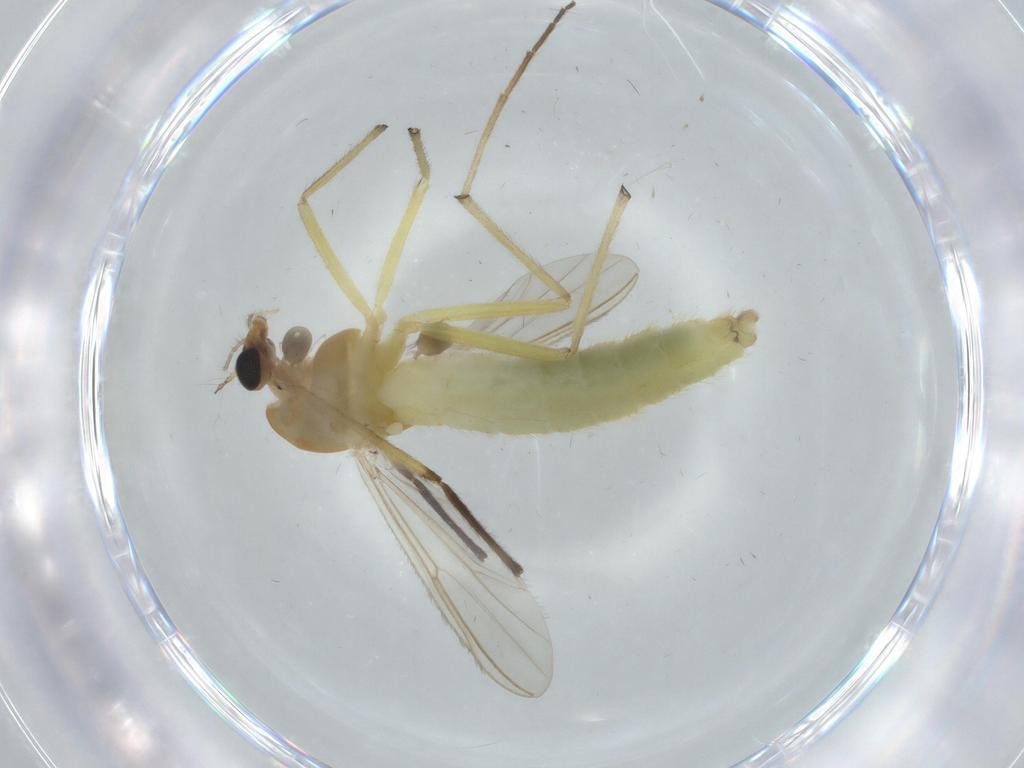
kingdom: Animalia
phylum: Arthropoda
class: Insecta
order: Diptera
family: Dolichopodidae
